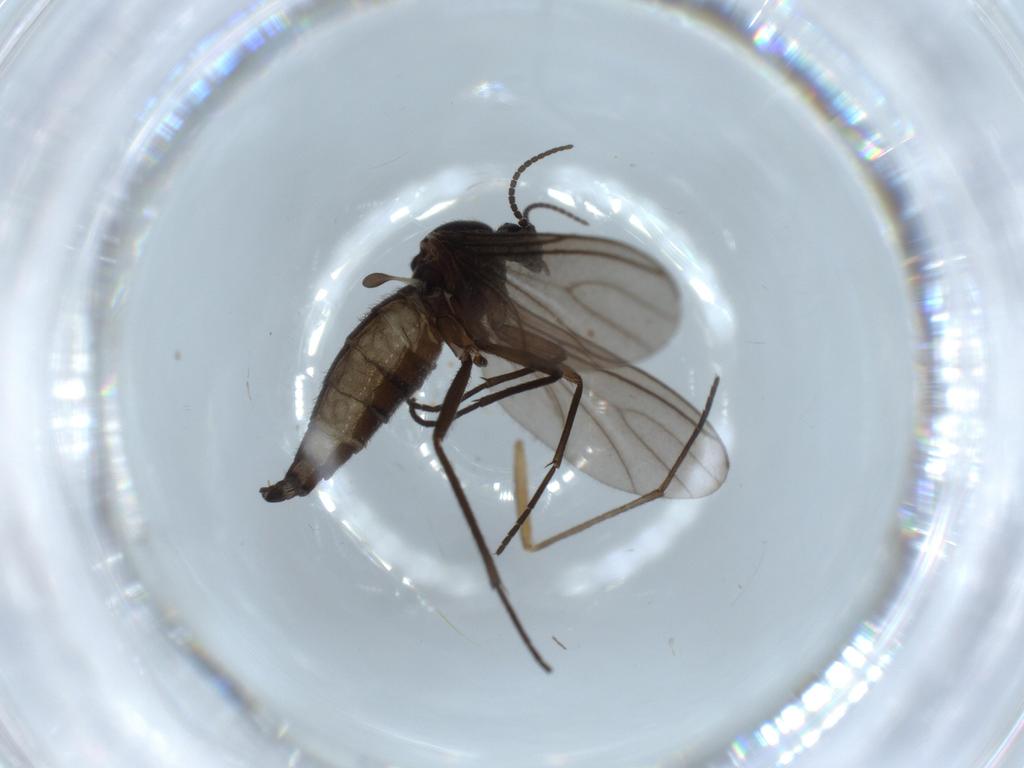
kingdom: Animalia
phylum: Arthropoda
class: Insecta
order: Diptera
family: Sciaridae
